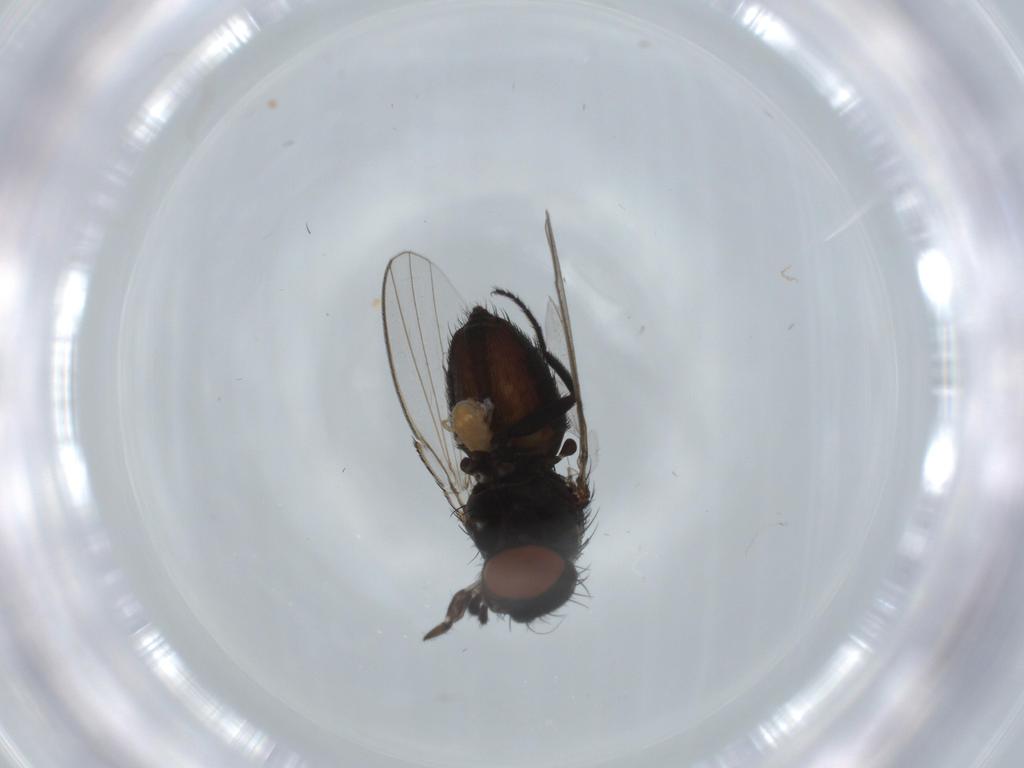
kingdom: Animalia
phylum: Arthropoda
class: Insecta
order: Diptera
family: Milichiidae
